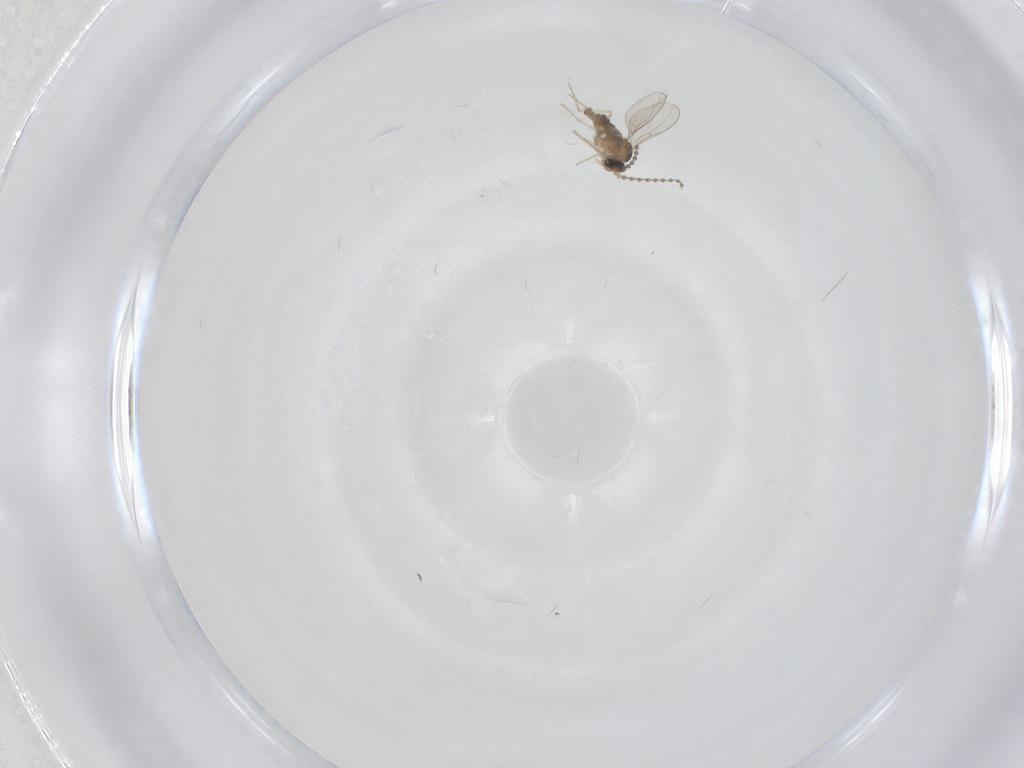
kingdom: Animalia
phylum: Arthropoda
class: Insecta
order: Diptera
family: Cecidomyiidae
